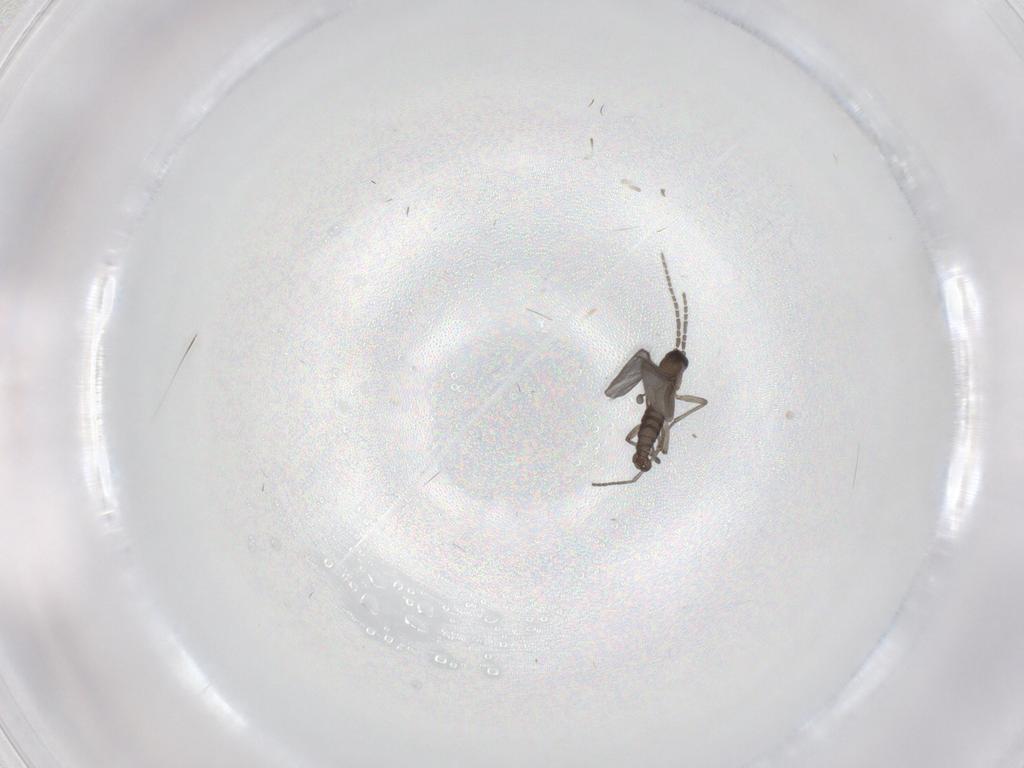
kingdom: Animalia
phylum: Arthropoda
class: Insecta
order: Diptera
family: Sciaridae
